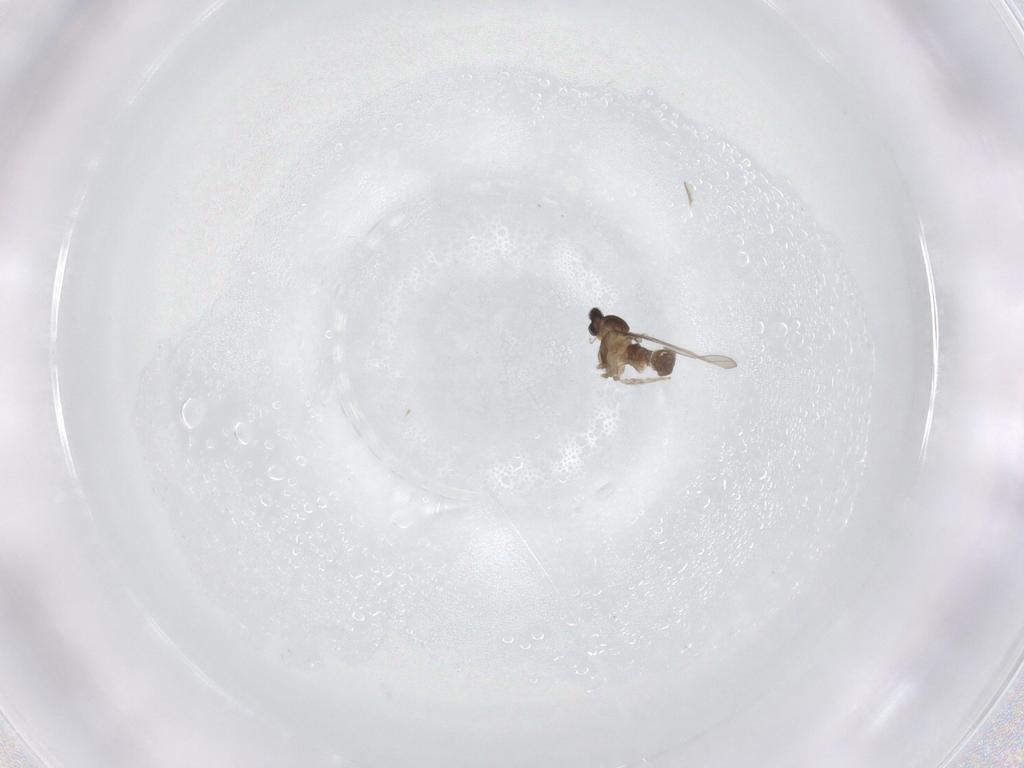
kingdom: Animalia
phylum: Arthropoda
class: Insecta
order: Diptera
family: Cecidomyiidae
